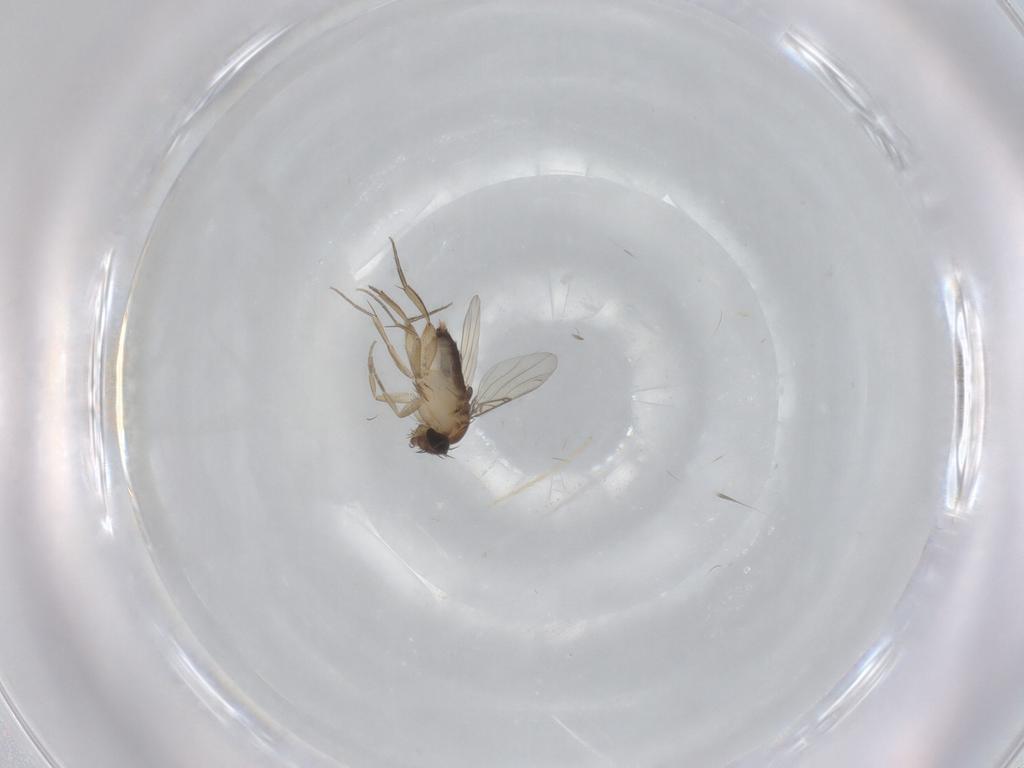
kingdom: Animalia
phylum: Arthropoda
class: Insecta
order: Diptera
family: Phoridae
